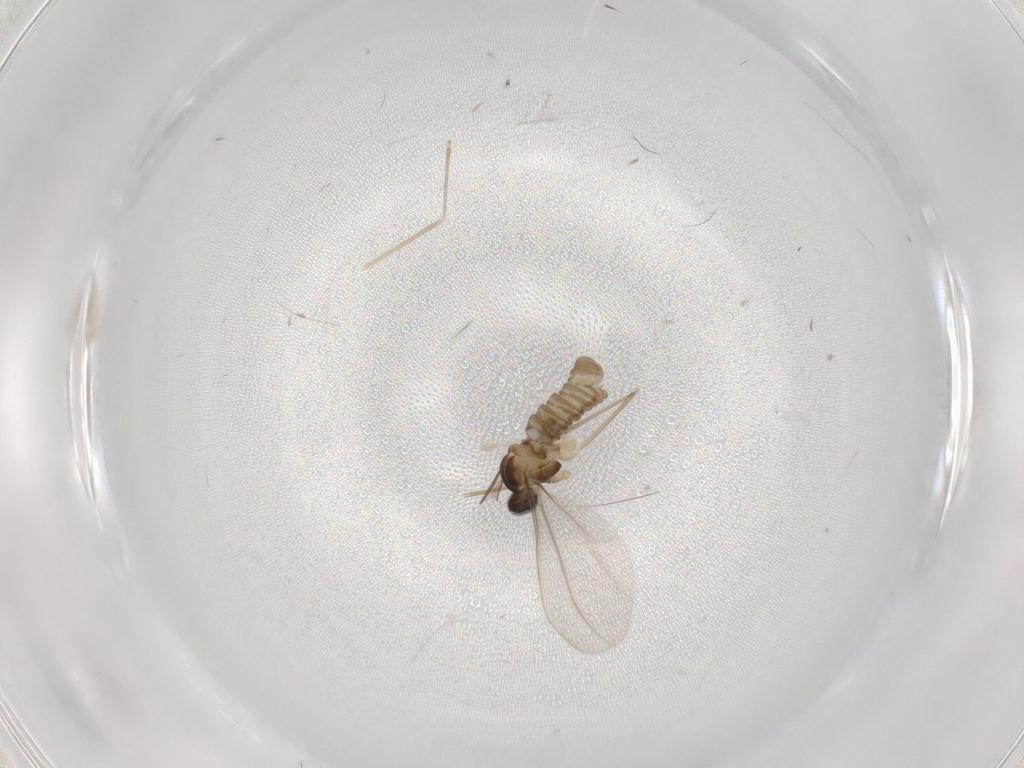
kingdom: Animalia
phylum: Arthropoda
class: Insecta
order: Diptera
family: Cecidomyiidae
